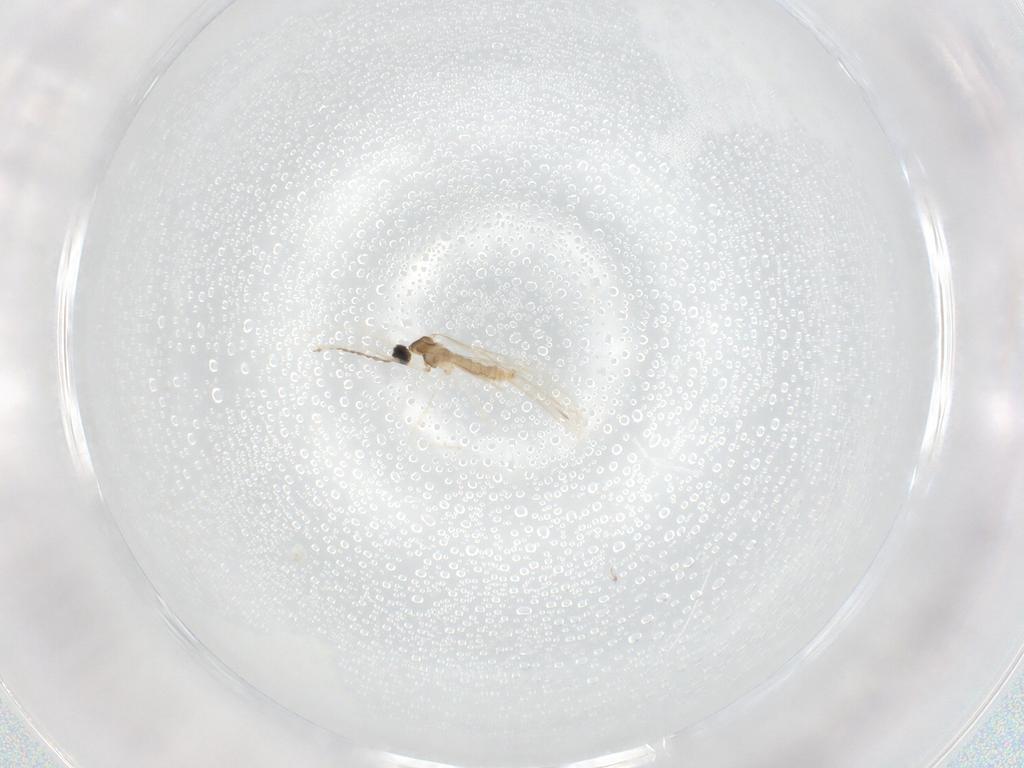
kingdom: Animalia
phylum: Arthropoda
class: Insecta
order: Diptera
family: Cecidomyiidae
